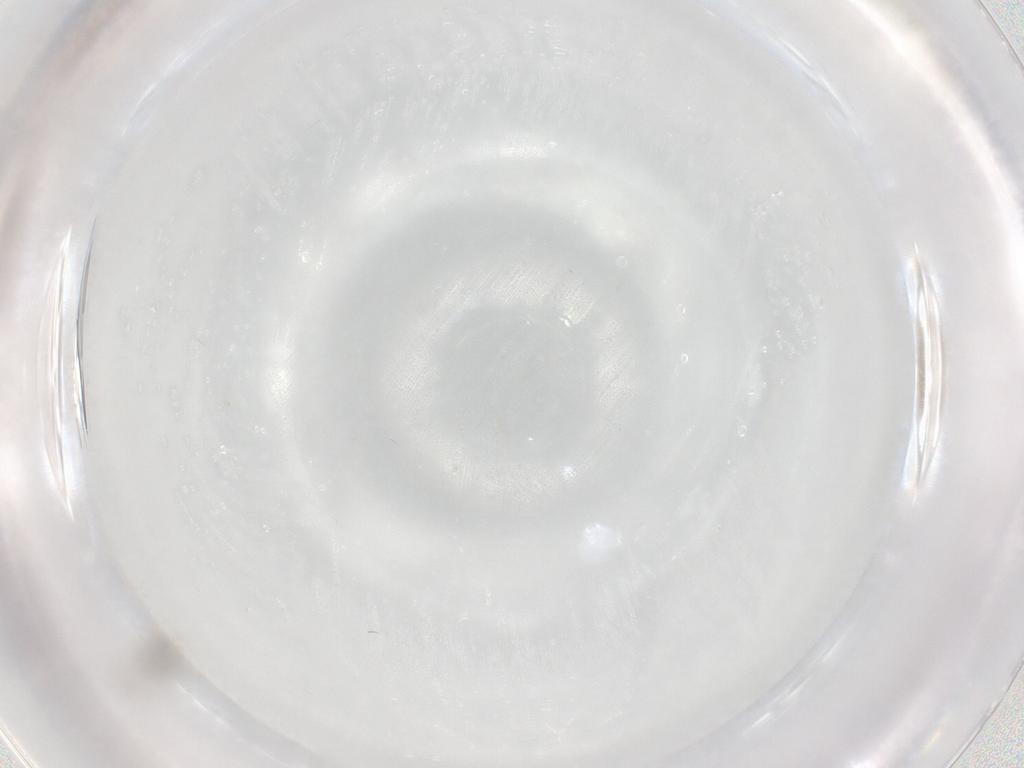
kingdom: Animalia
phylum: Arthropoda
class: Insecta
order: Hymenoptera
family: Mymaridae
